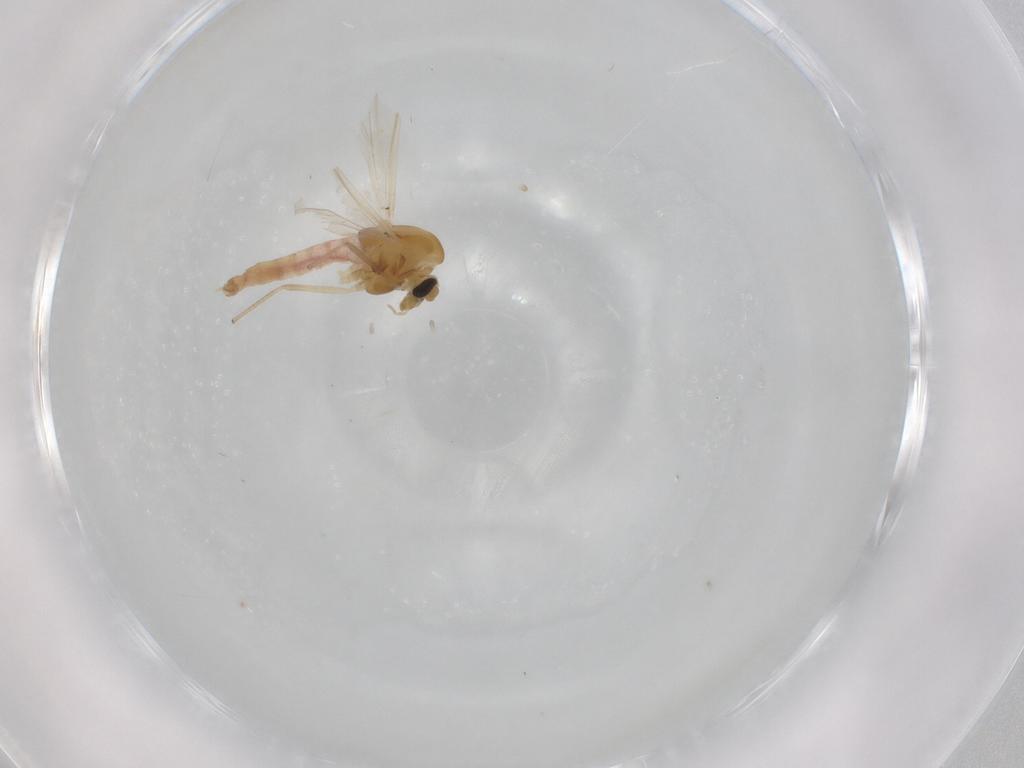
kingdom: Animalia
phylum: Arthropoda
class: Insecta
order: Diptera
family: Chironomidae
